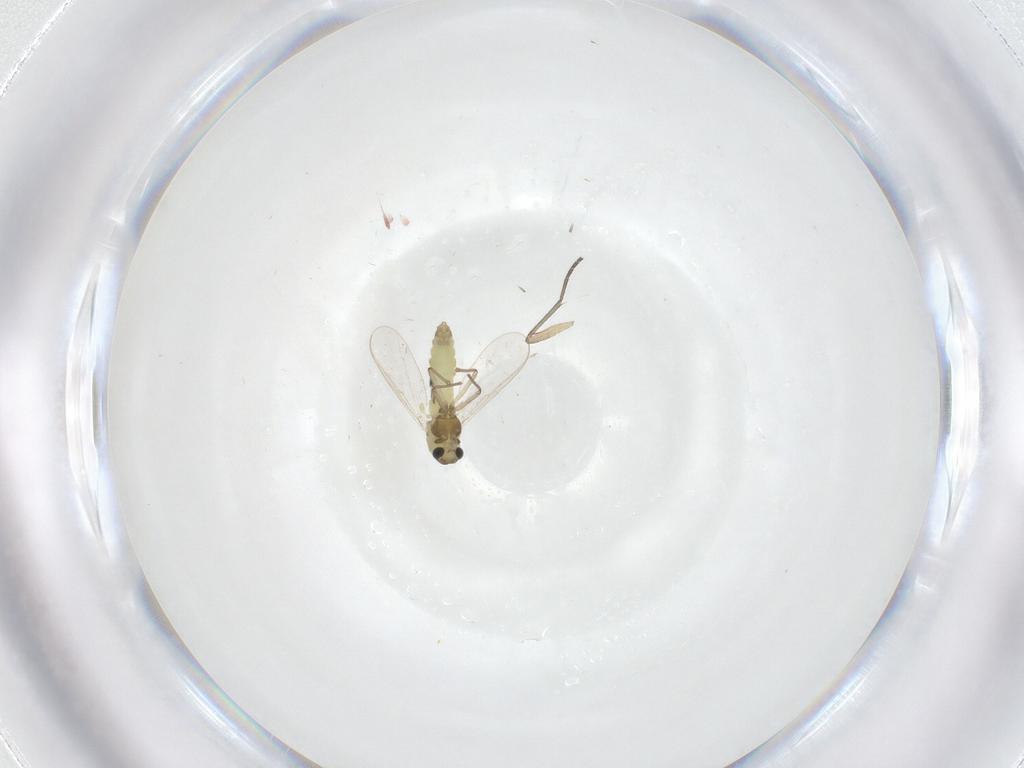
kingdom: Animalia
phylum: Arthropoda
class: Insecta
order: Diptera
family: Chironomidae
